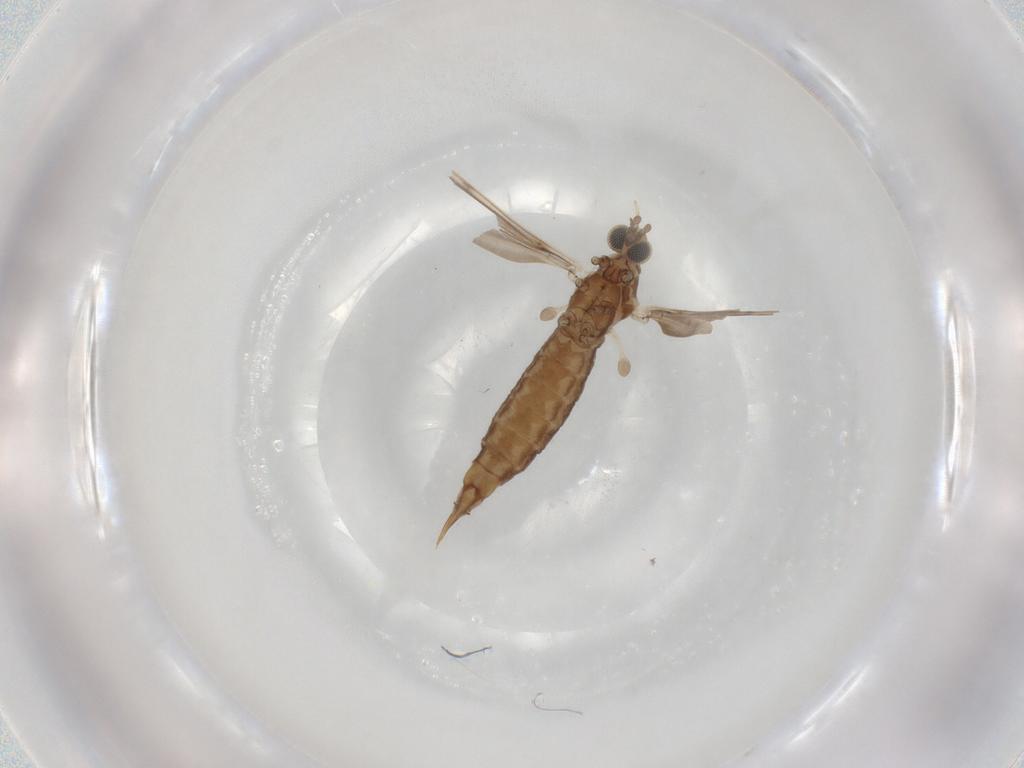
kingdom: Animalia
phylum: Arthropoda
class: Insecta
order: Diptera
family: Limoniidae
